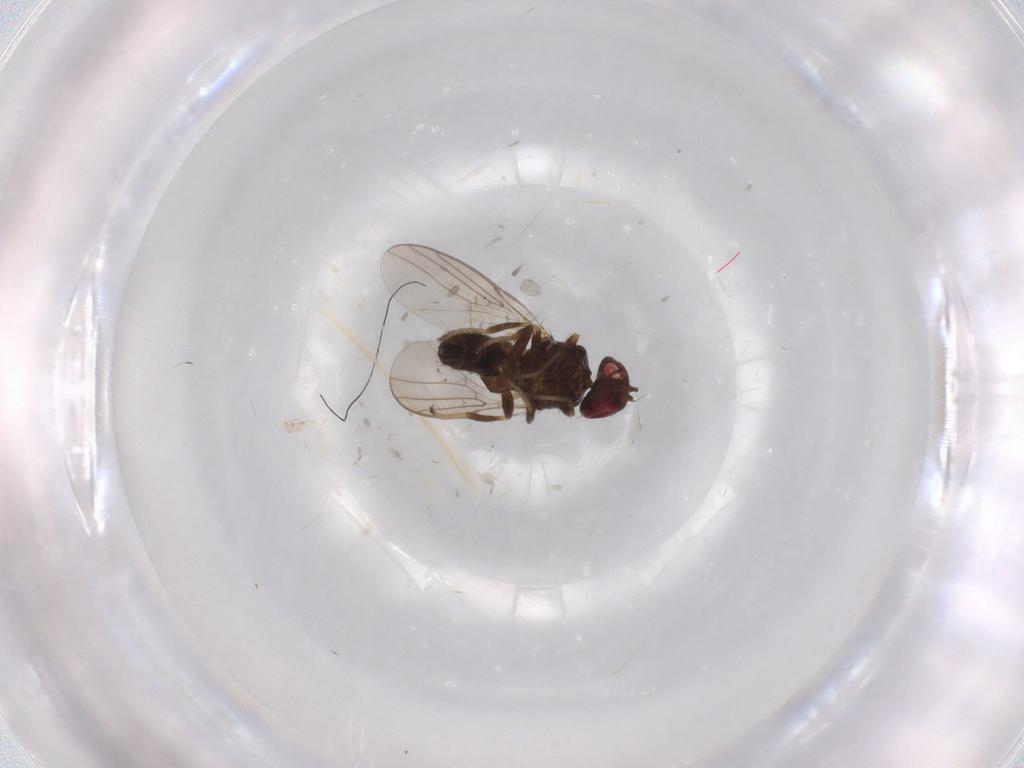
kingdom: Animalia
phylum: Arthropoda
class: Insecta
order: Diptera
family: Chloropidae
